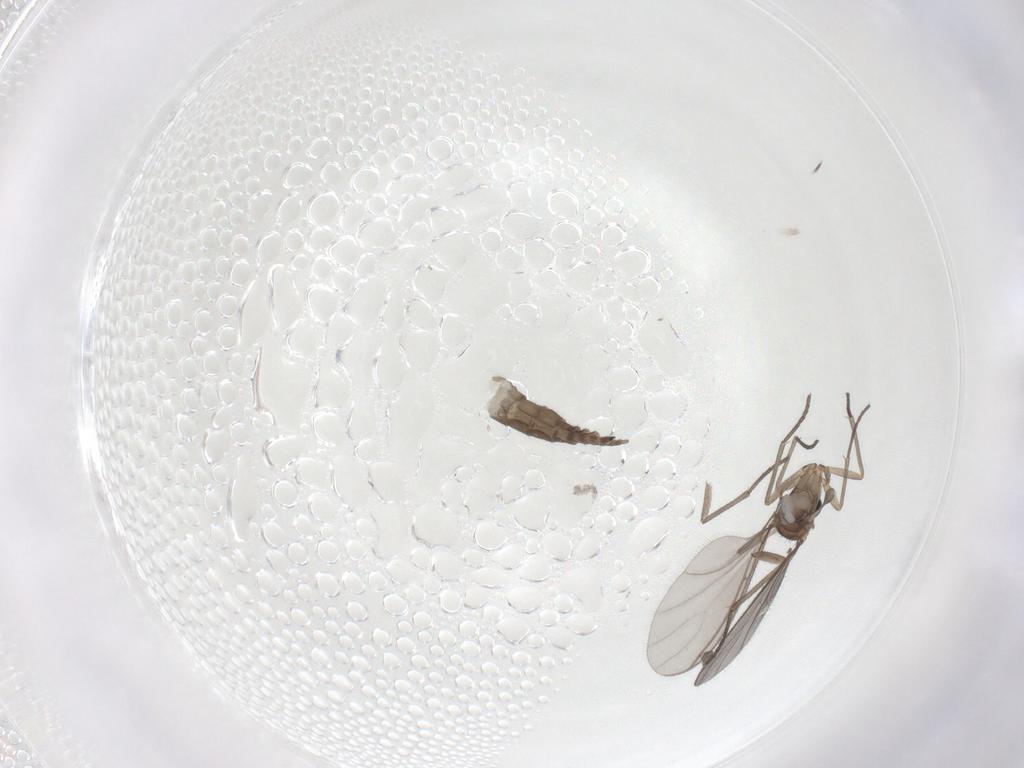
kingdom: Animalia
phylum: Arthropoda
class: Insecta
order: Diptera
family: Sciaridae
